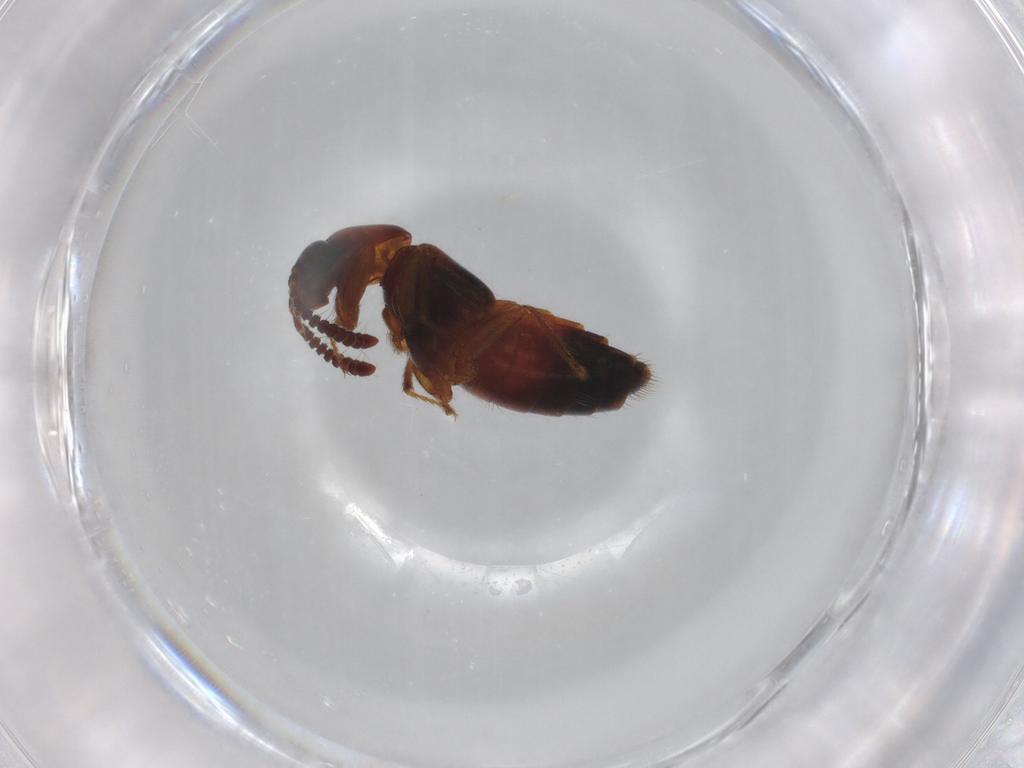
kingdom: Animalia
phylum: Arthropoda
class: Insecta
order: Coleoptera
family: Staphylinidae
